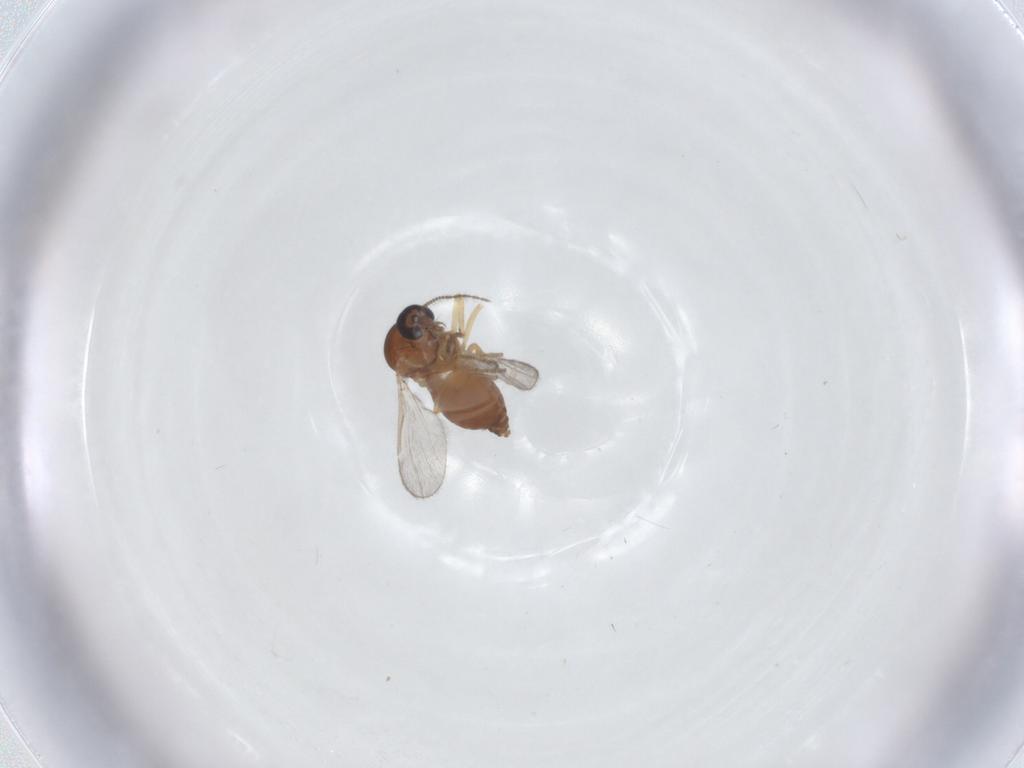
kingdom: Animalia
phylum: Arthropoda
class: Insecta
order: Diptera
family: Ceratopogonidae
